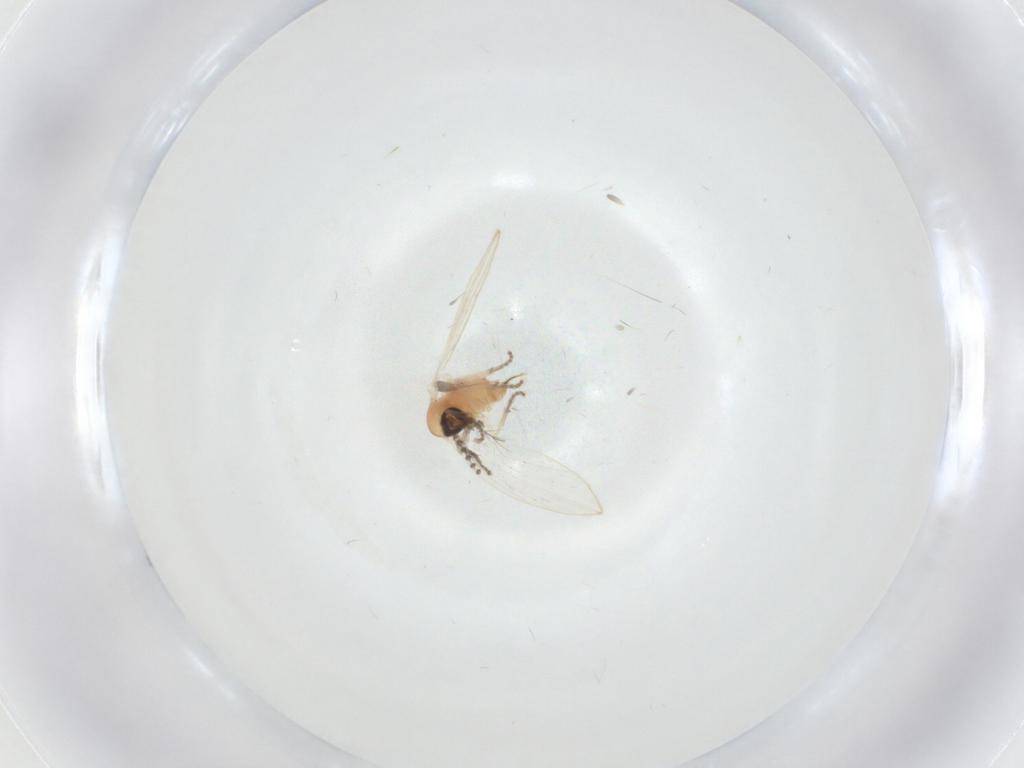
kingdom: Animalia
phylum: Arthropoda
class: Insecta
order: Diptera
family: Psychodidae
